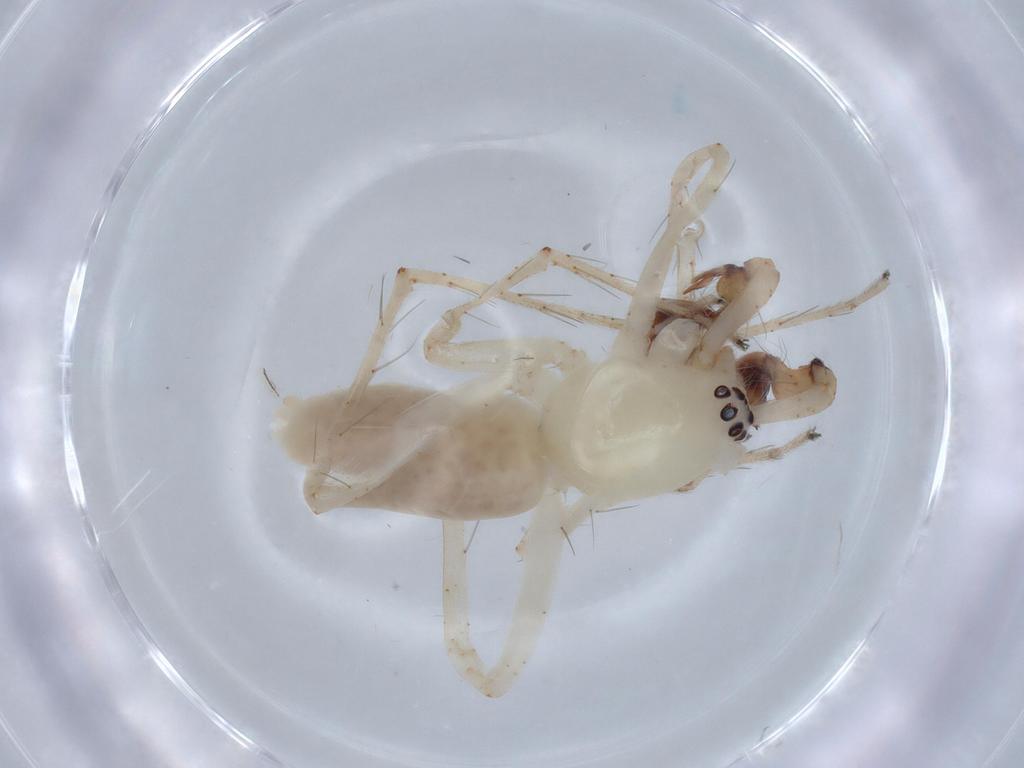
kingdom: Animalia
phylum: Arthropoda
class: Arachnida
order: Araneae
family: Anyphaenidae
